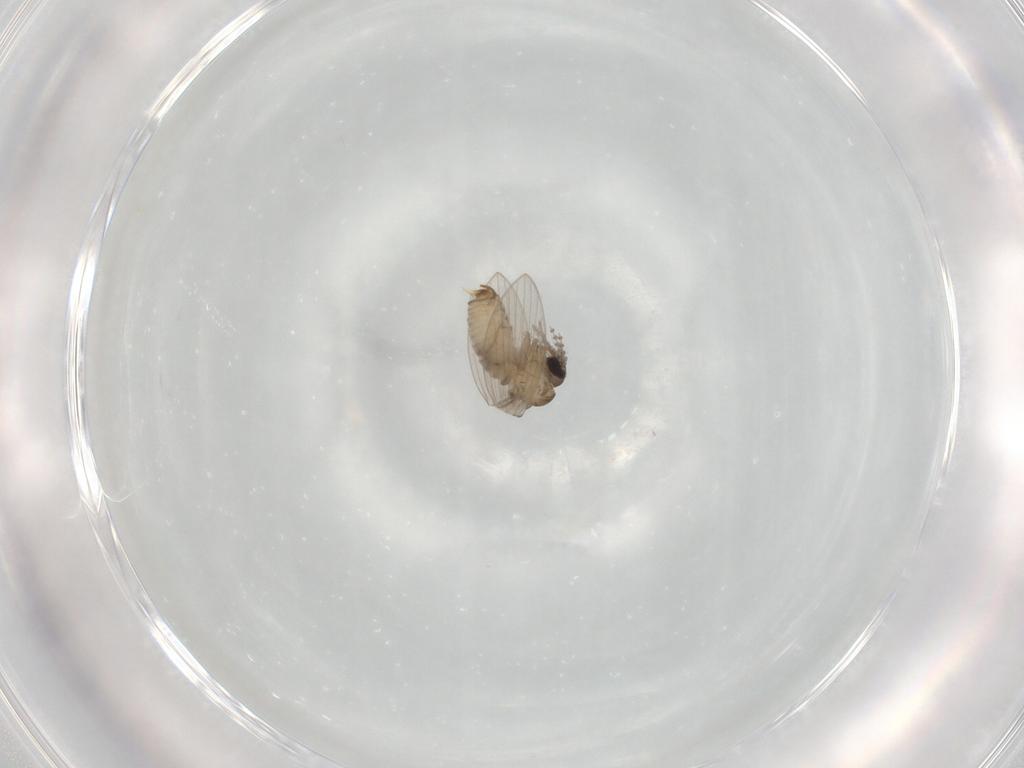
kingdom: Animalia
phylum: Arthropoda
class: Insecta
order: Diptera
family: Psychodidae
